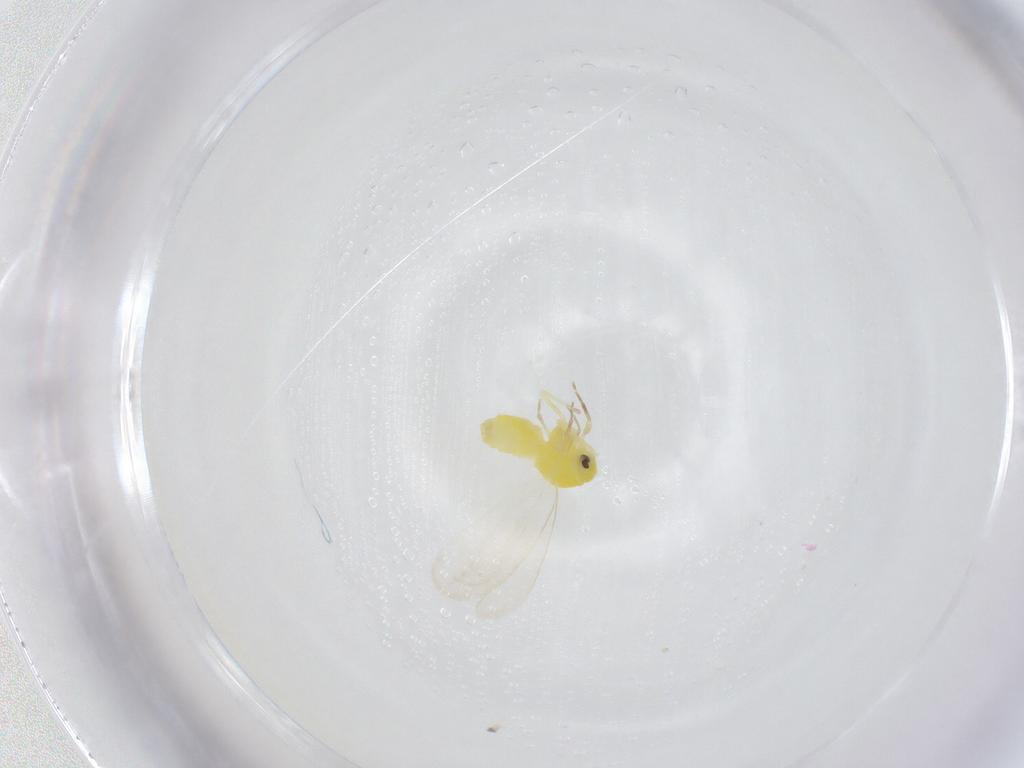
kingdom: Animalia
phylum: Arthropoda
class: Insecta
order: Hemiptera
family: Aleyrodidae
